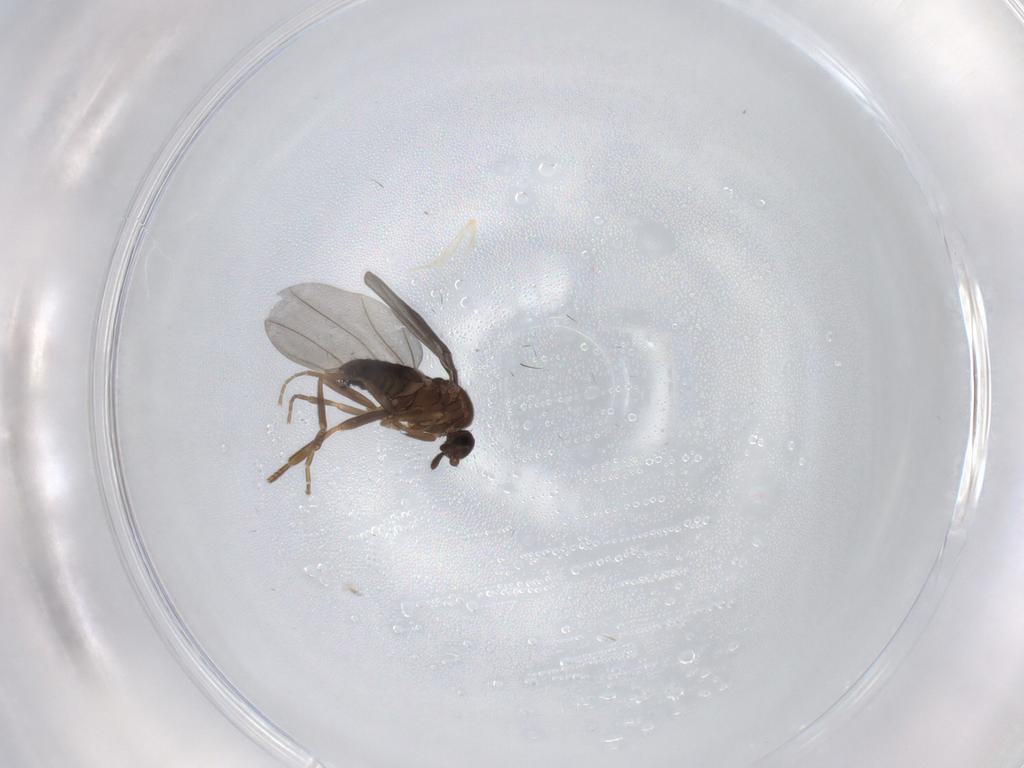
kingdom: Animalia
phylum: Arthropoda
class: Insecta
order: Diptera
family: Phoridae
